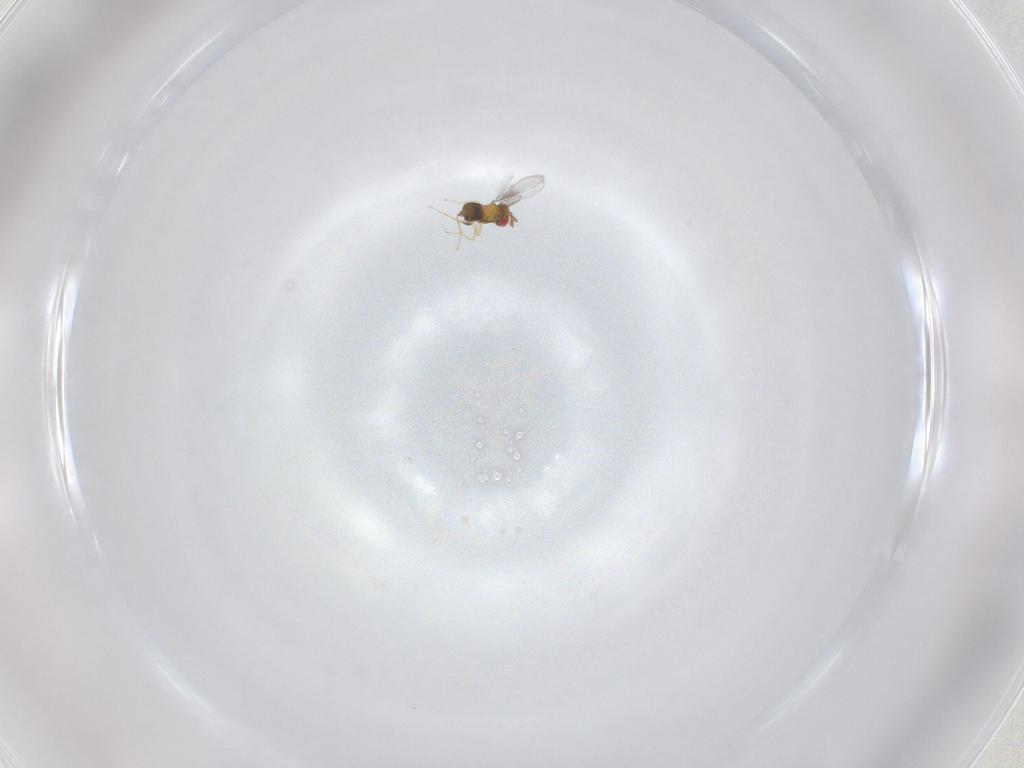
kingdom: Animalia
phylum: Arthropoda
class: Insecta
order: Hymenoptera
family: Trichogrammatidae
